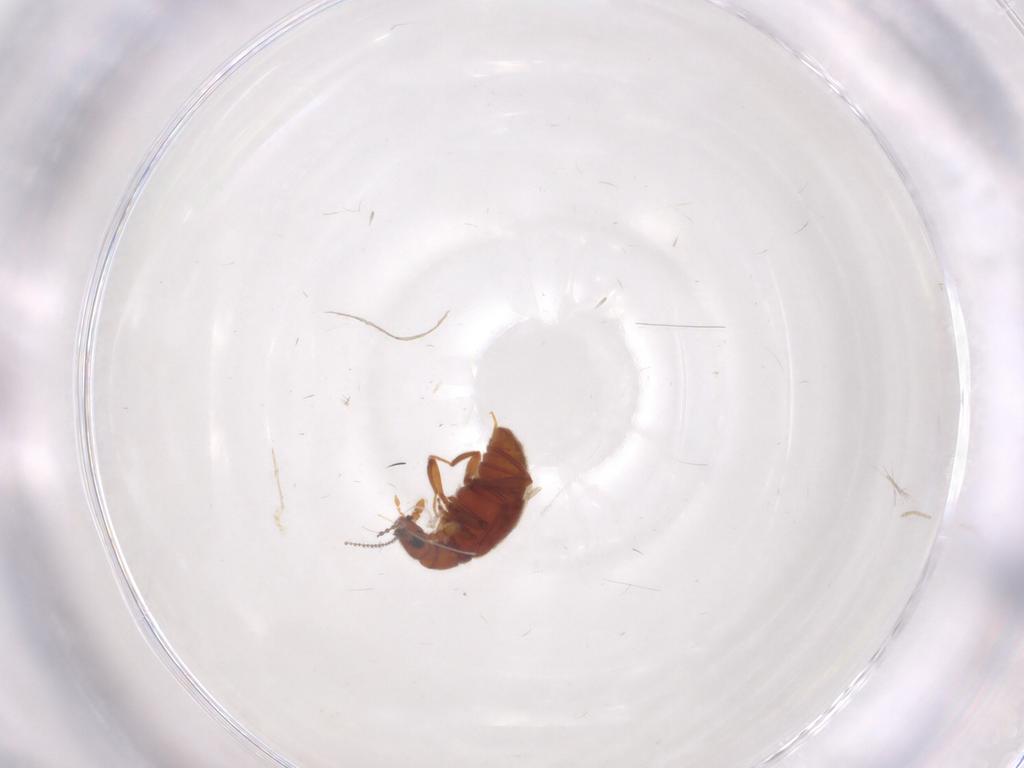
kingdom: Animalia
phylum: Arthropoda
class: Insecta
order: Coleoptera
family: Staphylinidae
